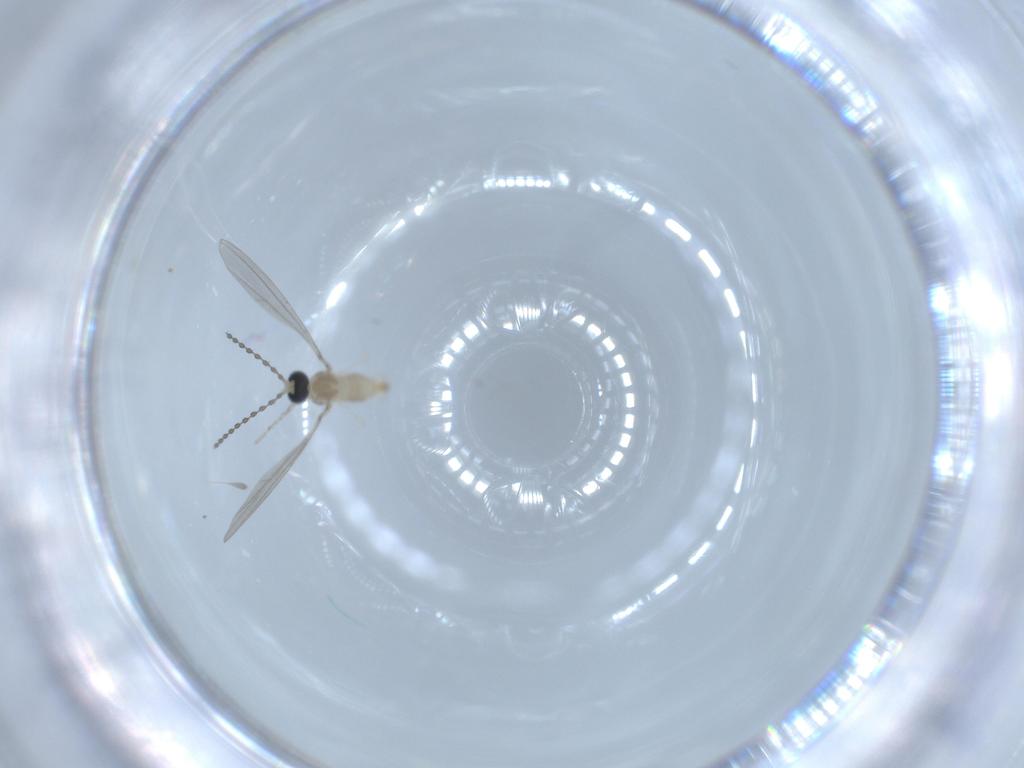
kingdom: Animalia
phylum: Arthropoda
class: Insecta
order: Diptera
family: Cecidomyiidae
